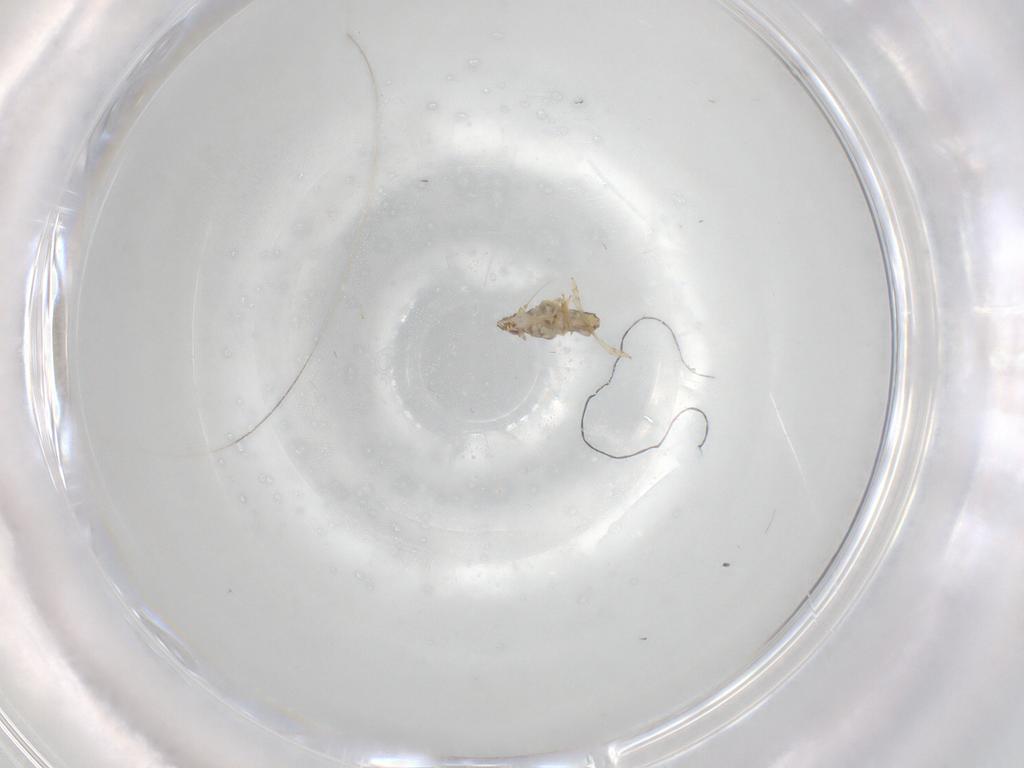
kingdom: Animalia
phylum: Arthropoda
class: Insecta
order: Hemiptera
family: Delphacidae
